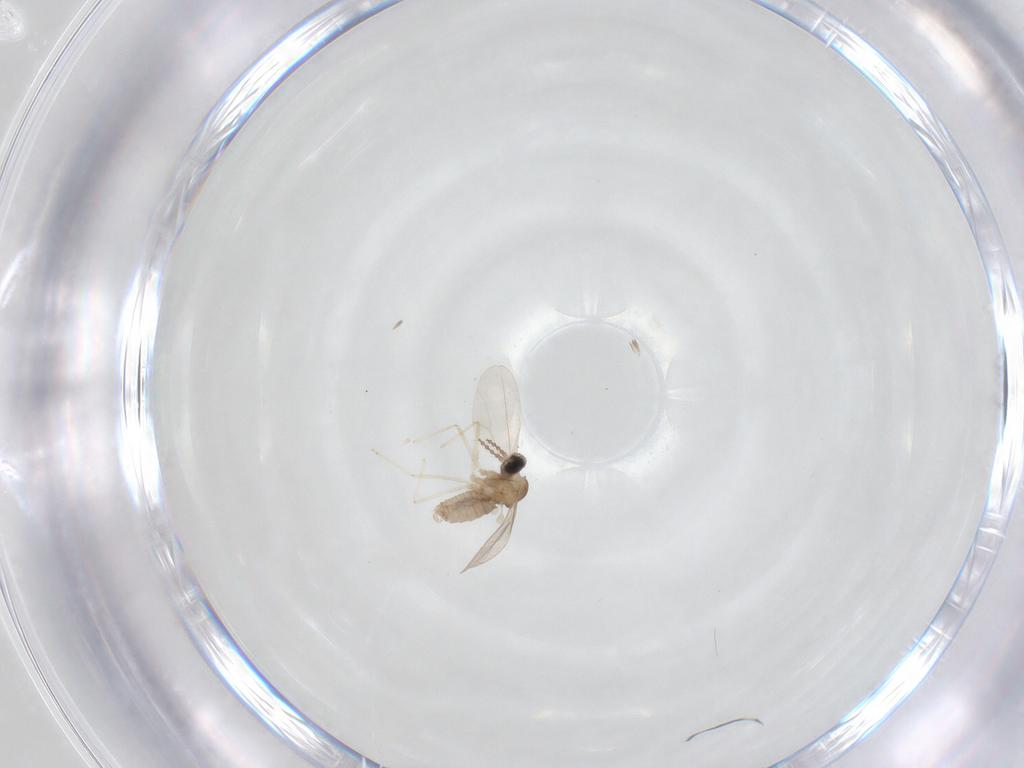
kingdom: Animalia
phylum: Arthropoda
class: Insecta
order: Diptera
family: Cecidomyiidae
